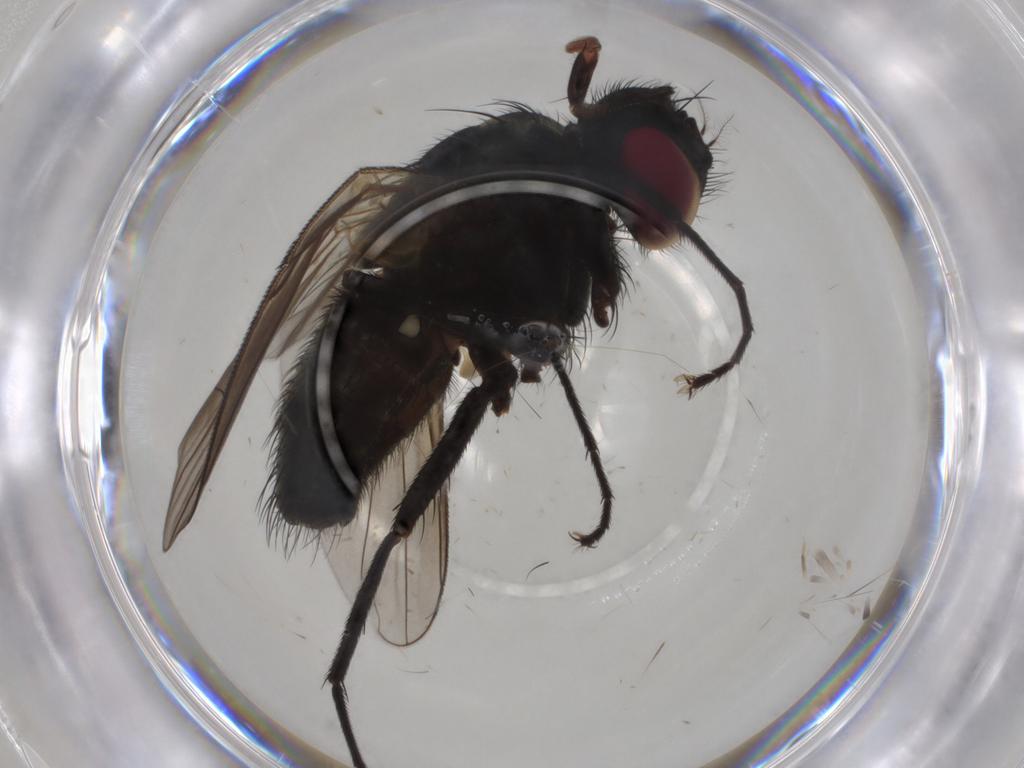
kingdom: Animalia
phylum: Arthropoda
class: Insecta
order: Diptera
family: Muscidae
